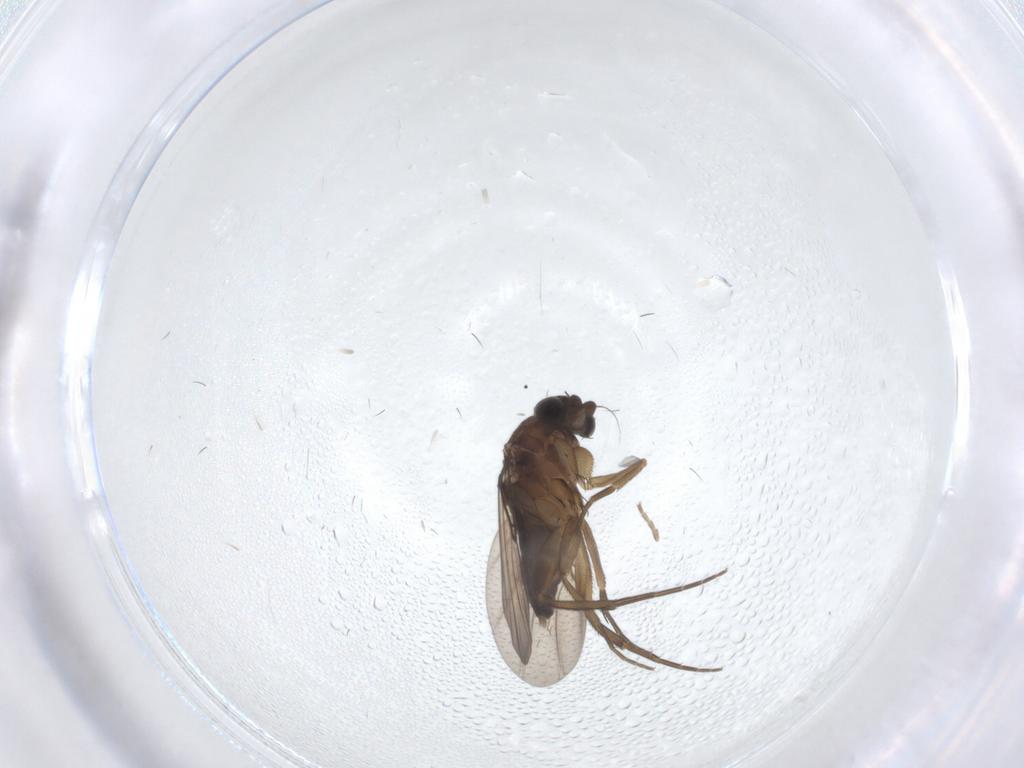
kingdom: Animalia
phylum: Arthropoda
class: Insecta
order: Diptera
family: Phoridae
